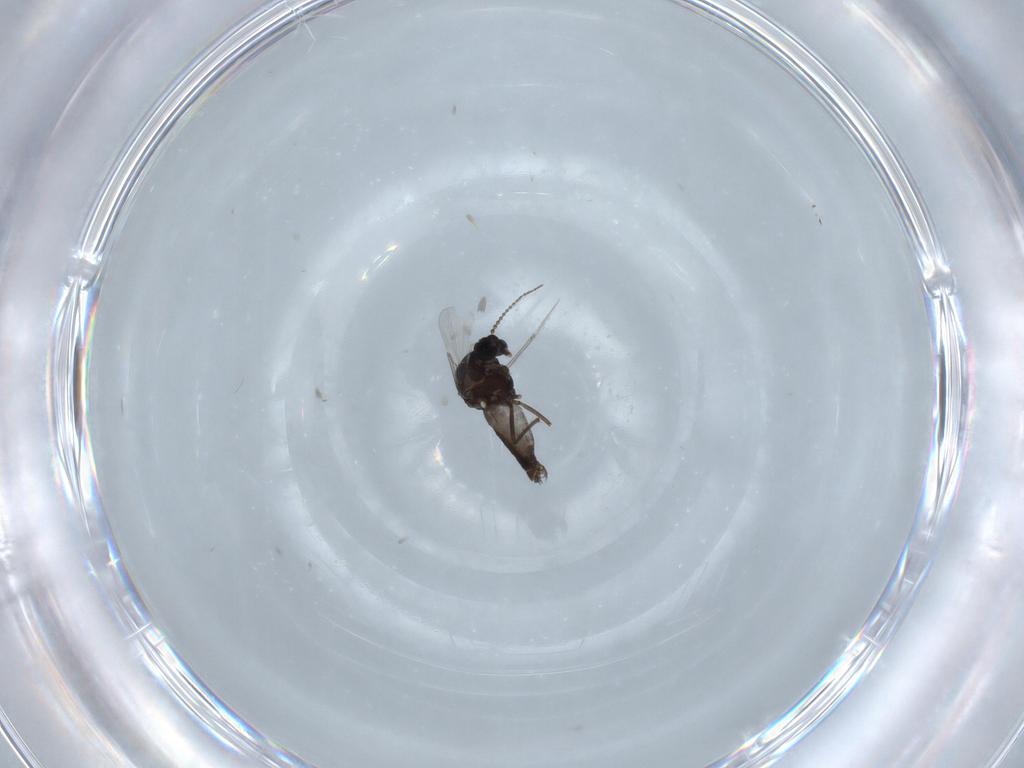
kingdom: Animalia
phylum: Arthropoda
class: Insecta
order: Diptera
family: Ceratopogonidae
